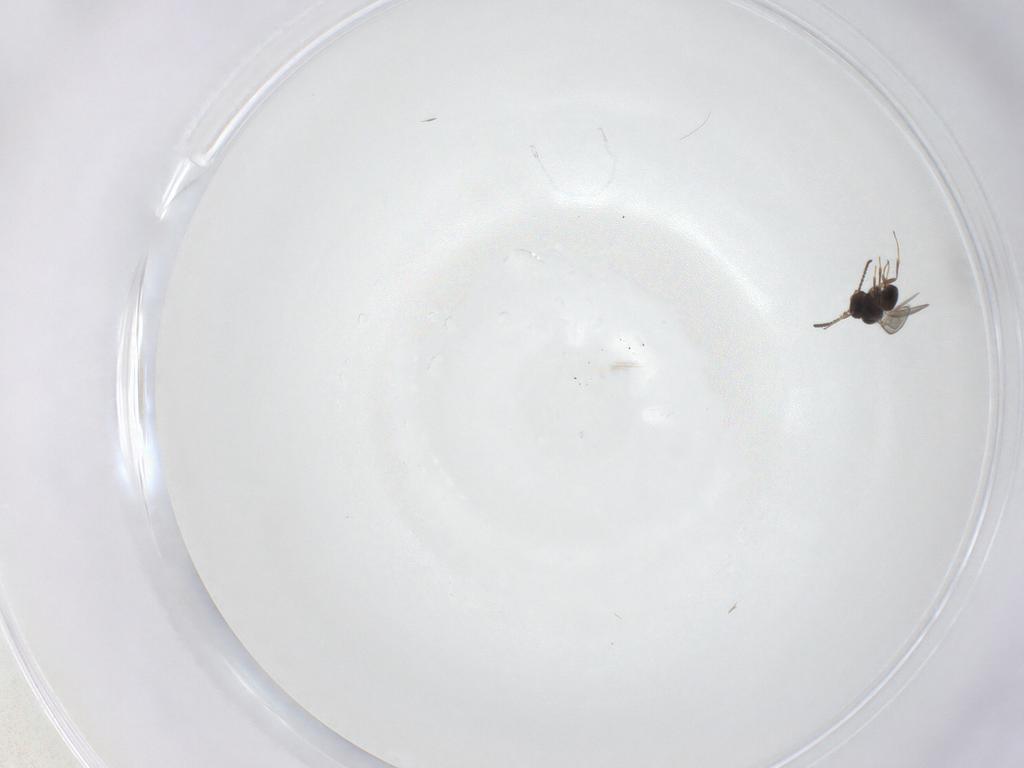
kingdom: Animalia
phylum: Arthropoda
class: Insecta
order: Hymenoptera
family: Scelionidae
